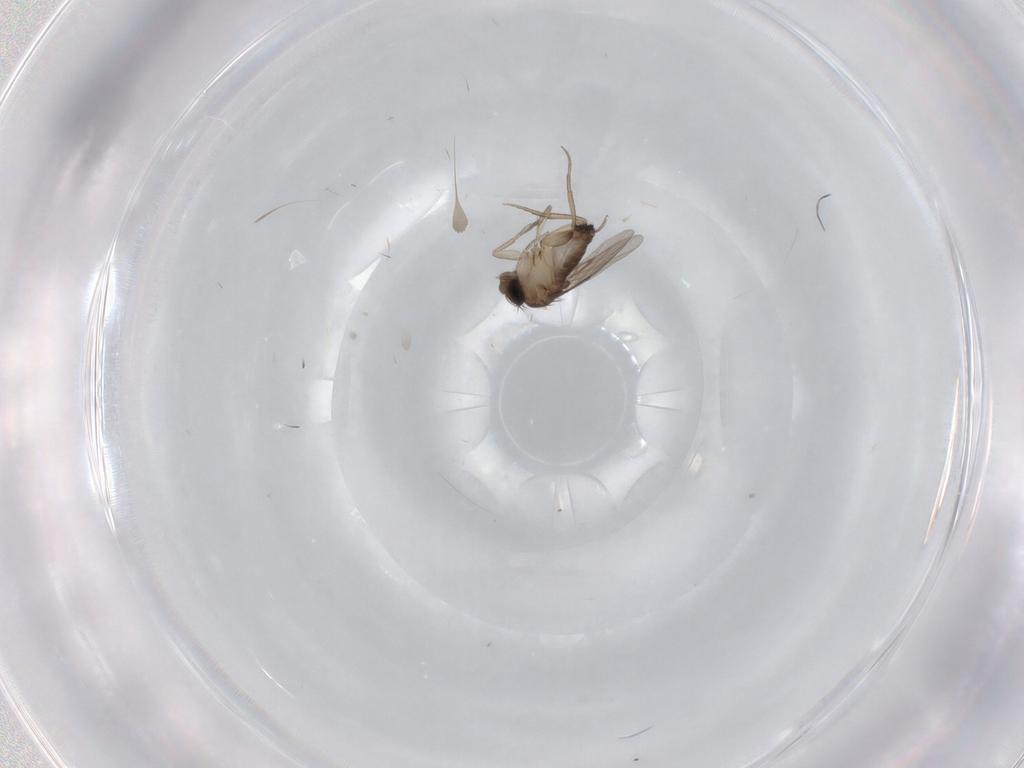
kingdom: Animalia
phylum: Arthropoda
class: Insecta
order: Diptera
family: Phoridae
